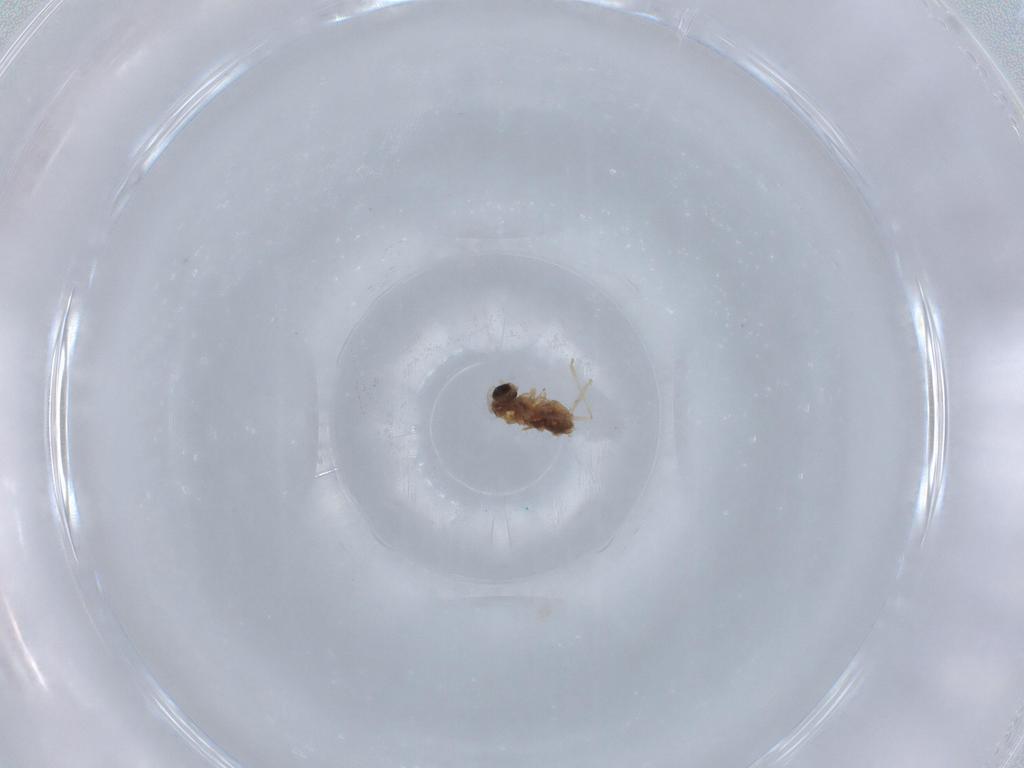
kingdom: Animalia
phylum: Arthropoda
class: Insecta
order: Diptera
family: Cecidomyiidae
